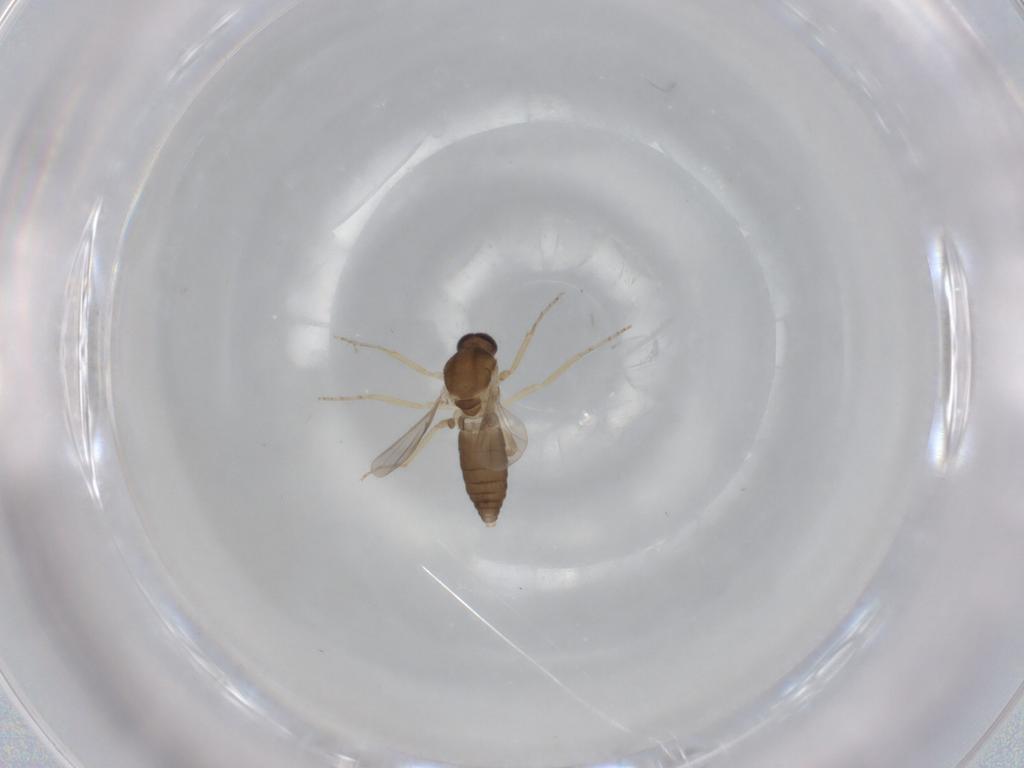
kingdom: Animalia
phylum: Arthropoda
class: Insecta
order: Diptera
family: Ceratopogonidae
